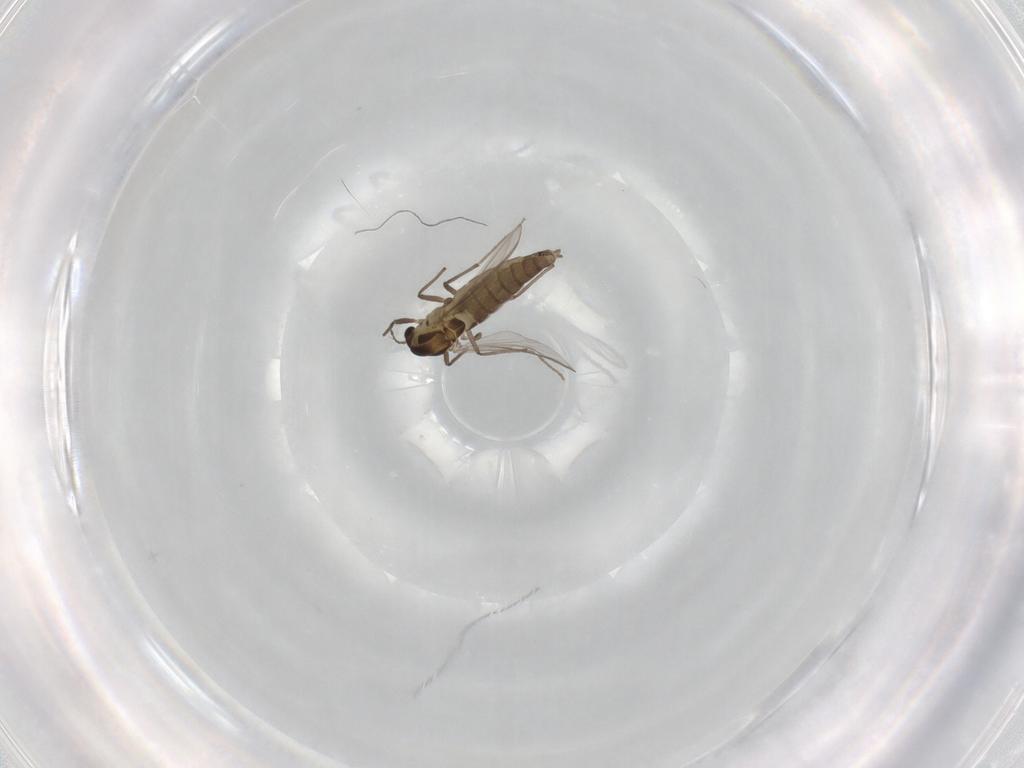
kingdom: Animalia
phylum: Arthropoda
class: Insecta
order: Diptera
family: Chironomidae
